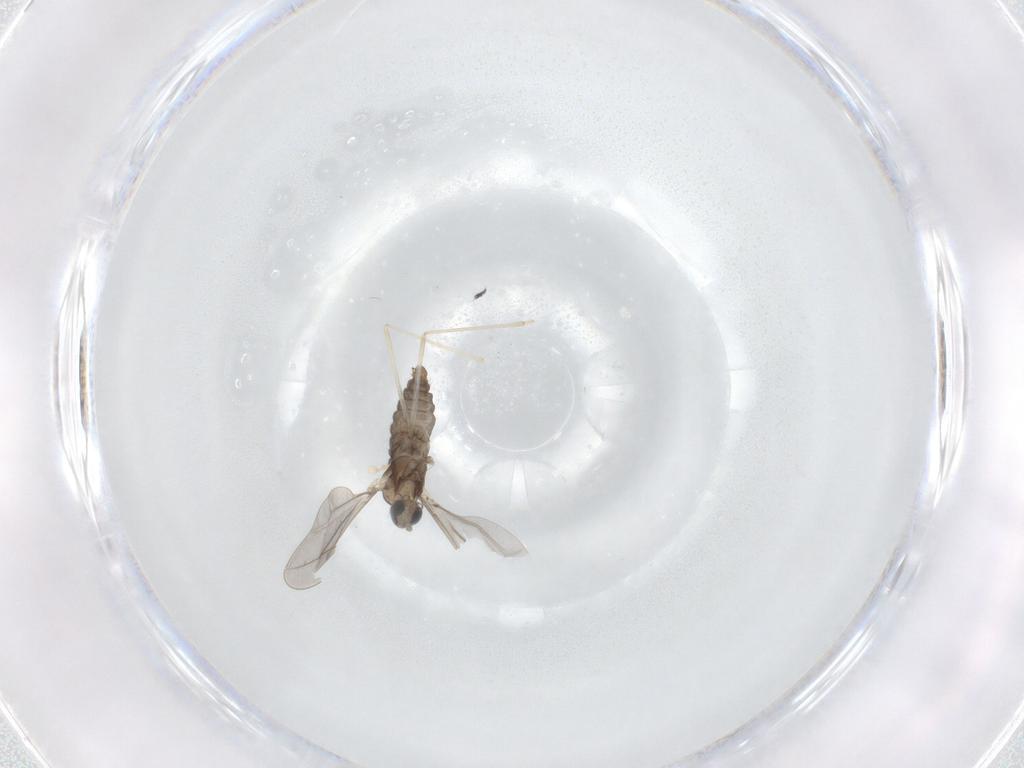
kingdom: Animalia
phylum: Arthropoda
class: Insecta
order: Diptera
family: Cecidomyiidae
